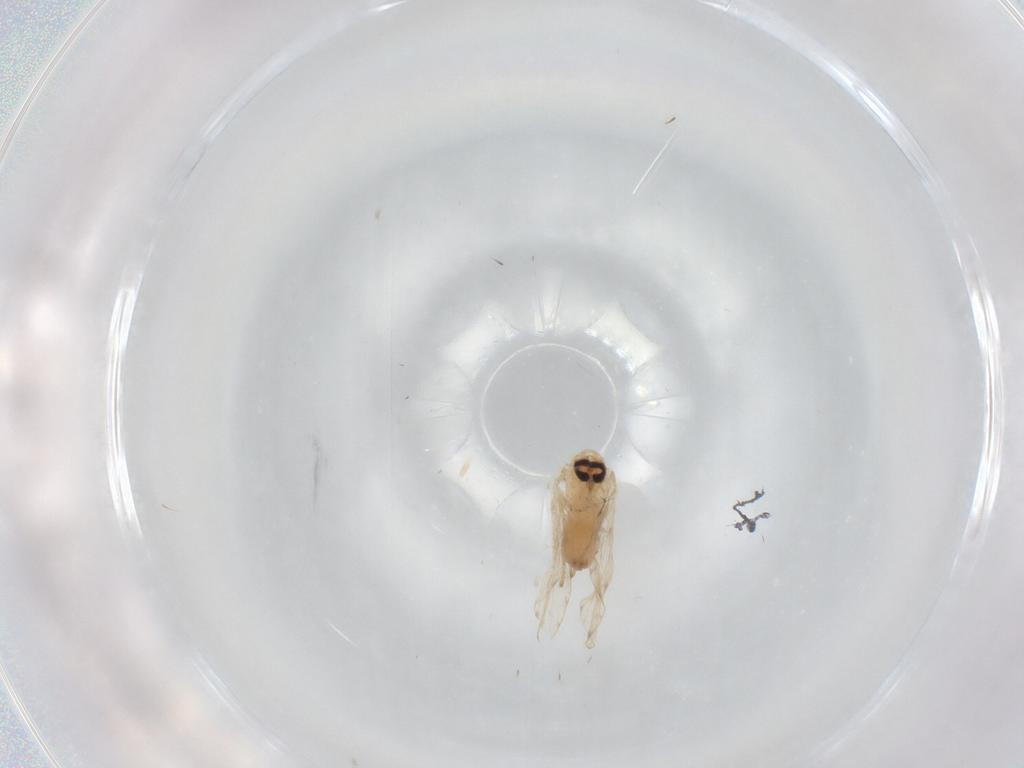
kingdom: Animalia
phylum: Arthropoda
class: Insecta
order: Diptera
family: Psychodidae
